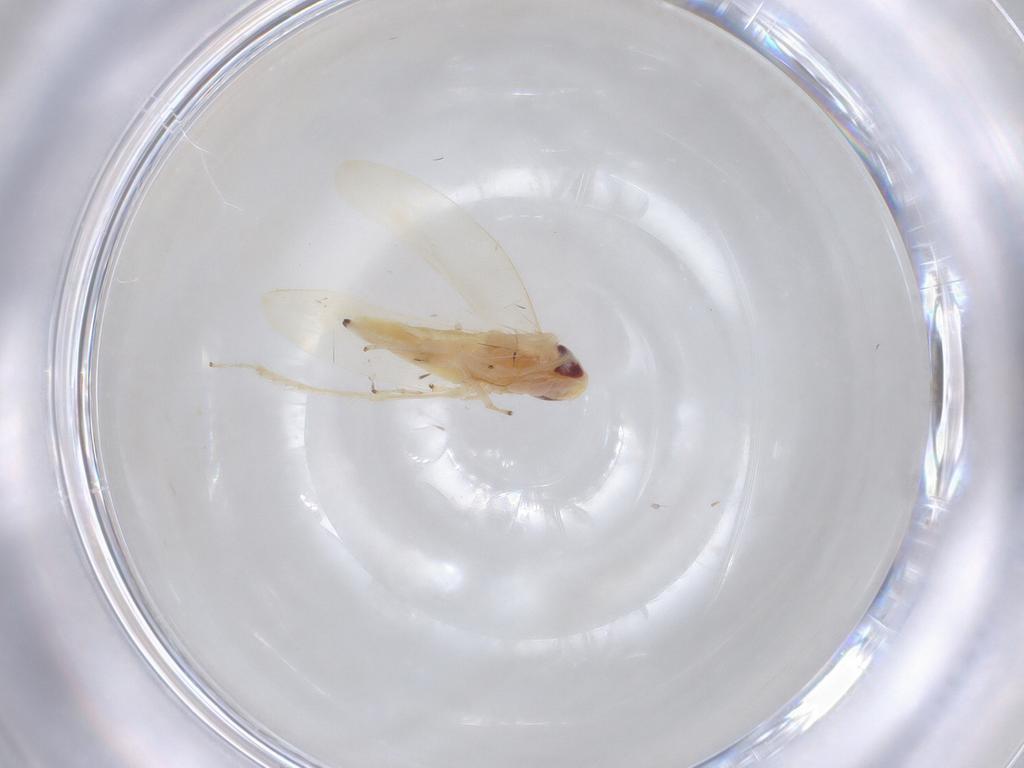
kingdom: Animalia
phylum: Arthropoda
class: Insecta
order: Hemiptera
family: Cicadellidae
